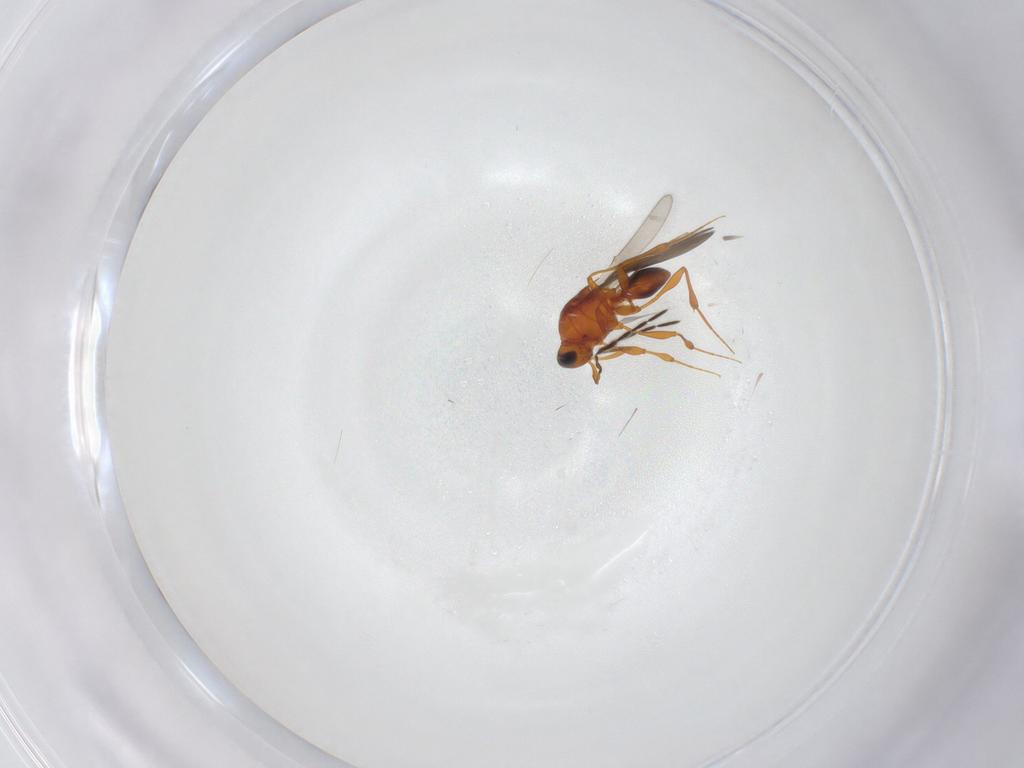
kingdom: Animalia
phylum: Arthropoda
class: Insecta
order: Hymenoptera
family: Platygastridae
